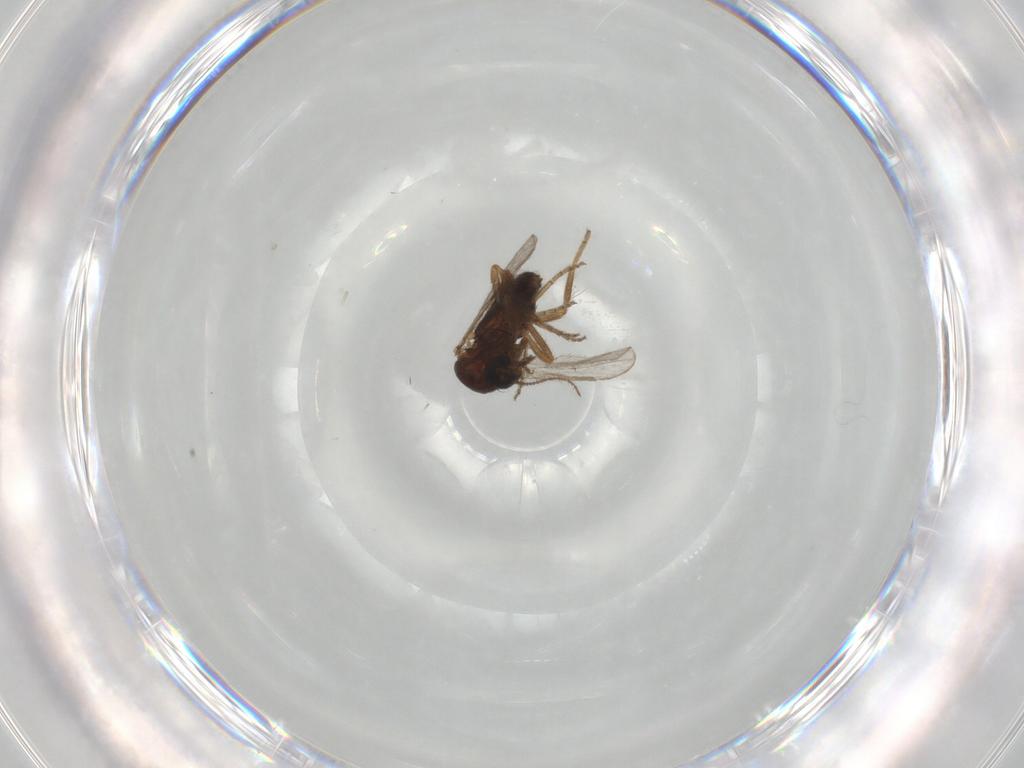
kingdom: Animalia
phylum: Arthropoda
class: Insecta
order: Diptera
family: Ceratopogonidae
